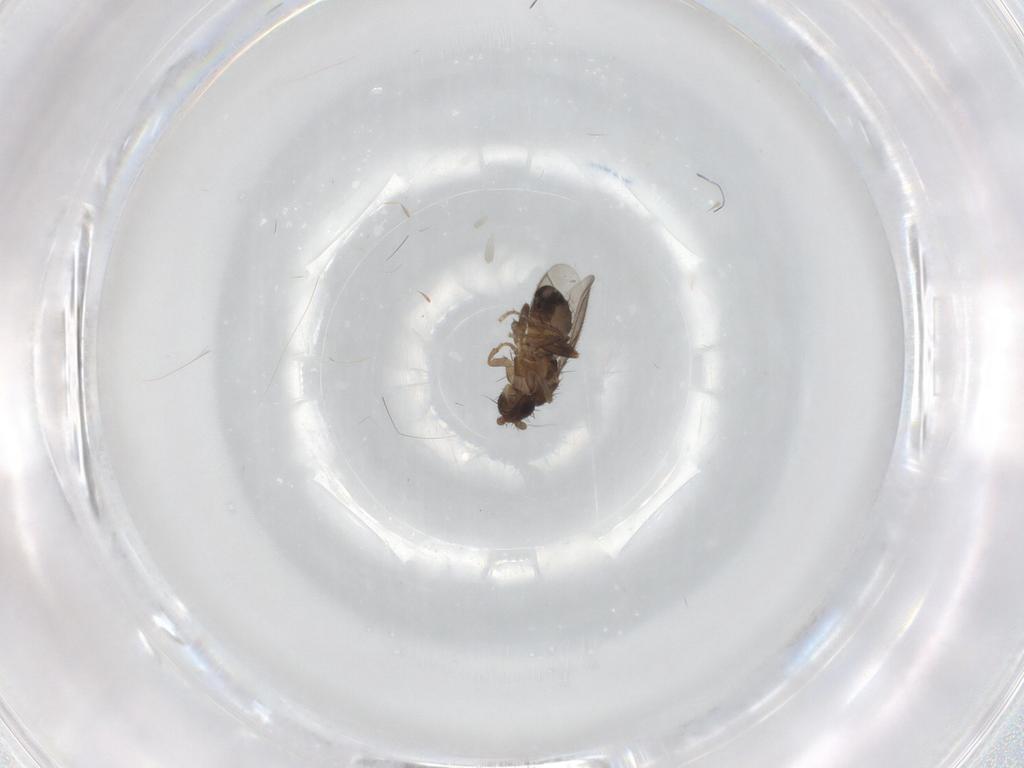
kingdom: Animalia
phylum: Arthropoda
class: Insecta
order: Diptera
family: Sphaeroceridae
